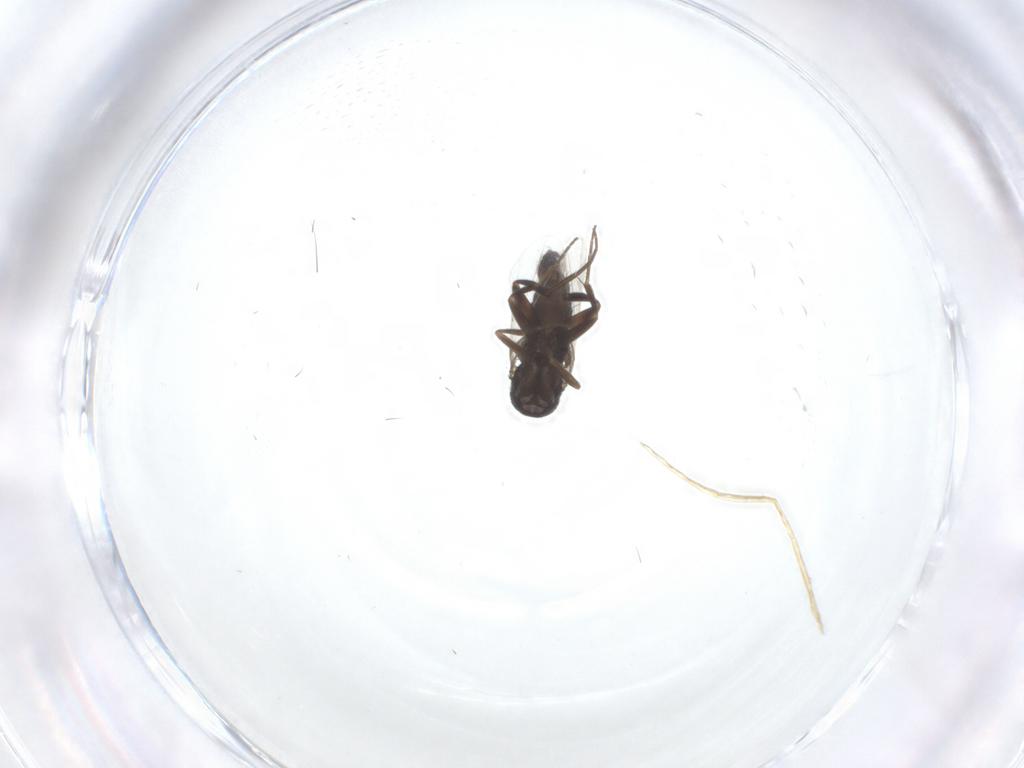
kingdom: Animalia
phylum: Arthropoda
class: Insecta
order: Diptera
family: Phoridae
